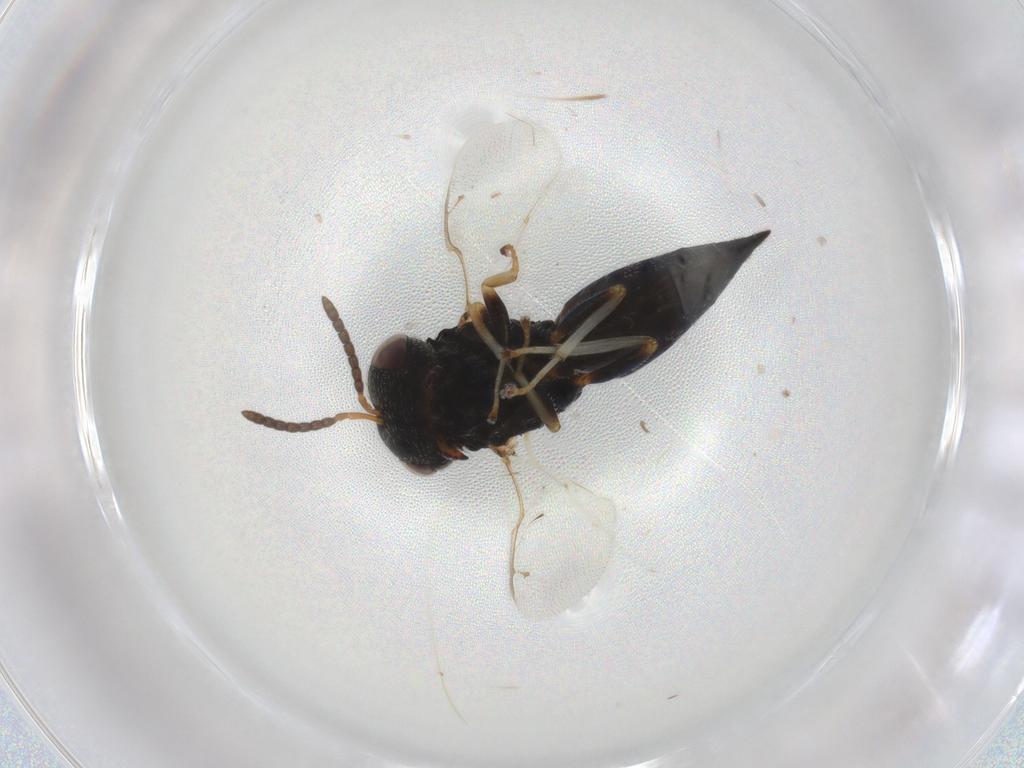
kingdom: Animalia
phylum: Arthropoda
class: Insecta
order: Hymenoptera
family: Pteromalidae
